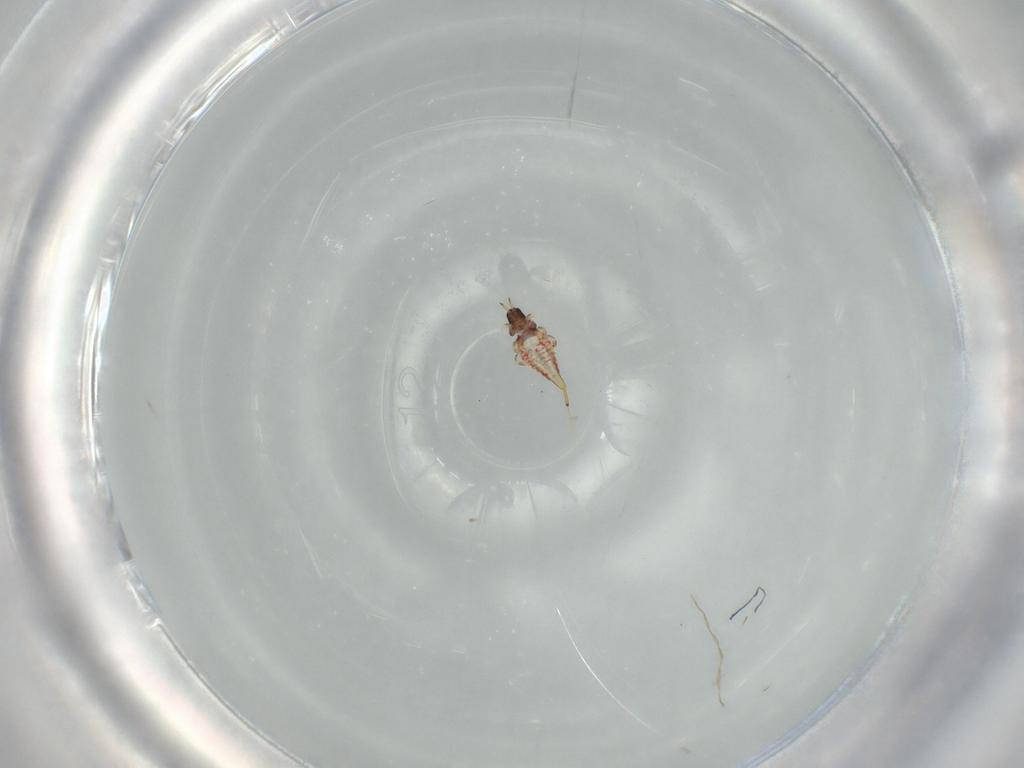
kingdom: Animalia
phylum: Arthropoda
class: Insecta
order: Thysanoptera
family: Phlaeothripidae
